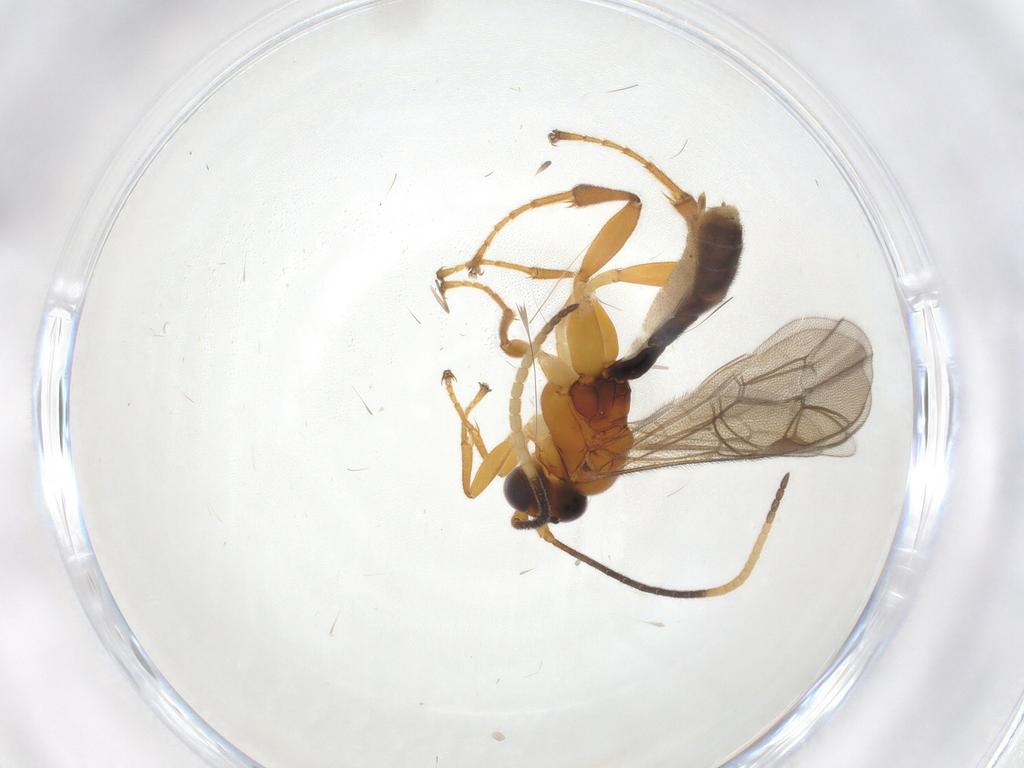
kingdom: Animalia
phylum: Arthropoda
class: Insecta
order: Hymenoptera
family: Ichneumonidae
